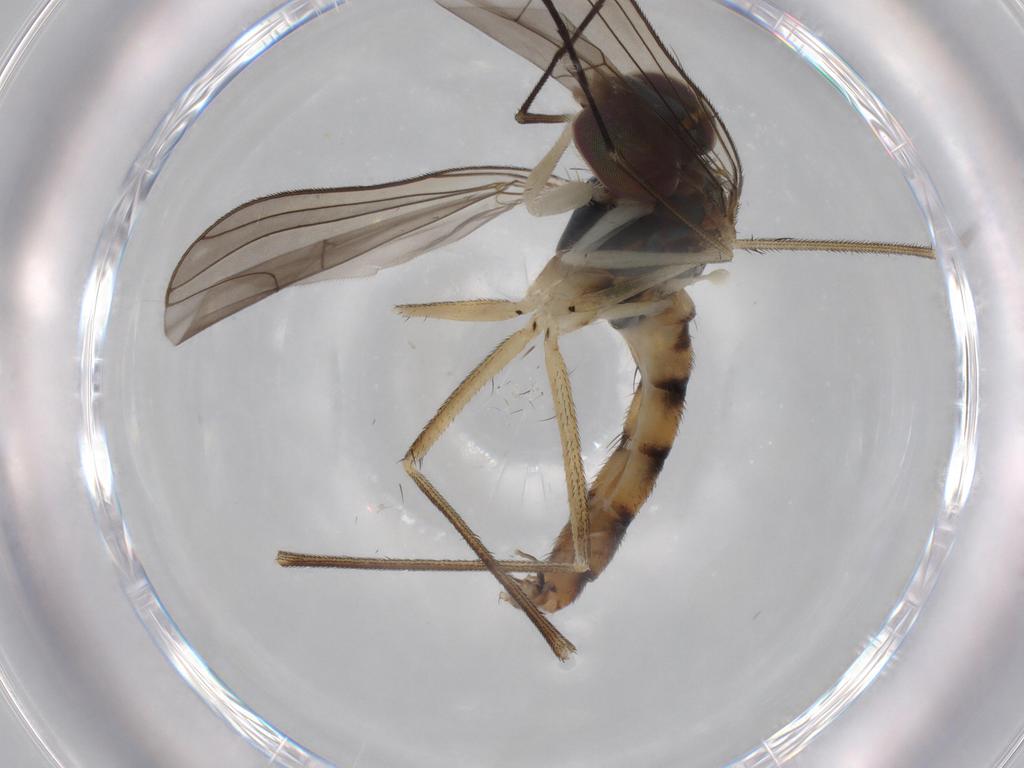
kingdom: Animalia
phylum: Arthropoda
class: Insecta
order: Diptera
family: Dolichopodidae
